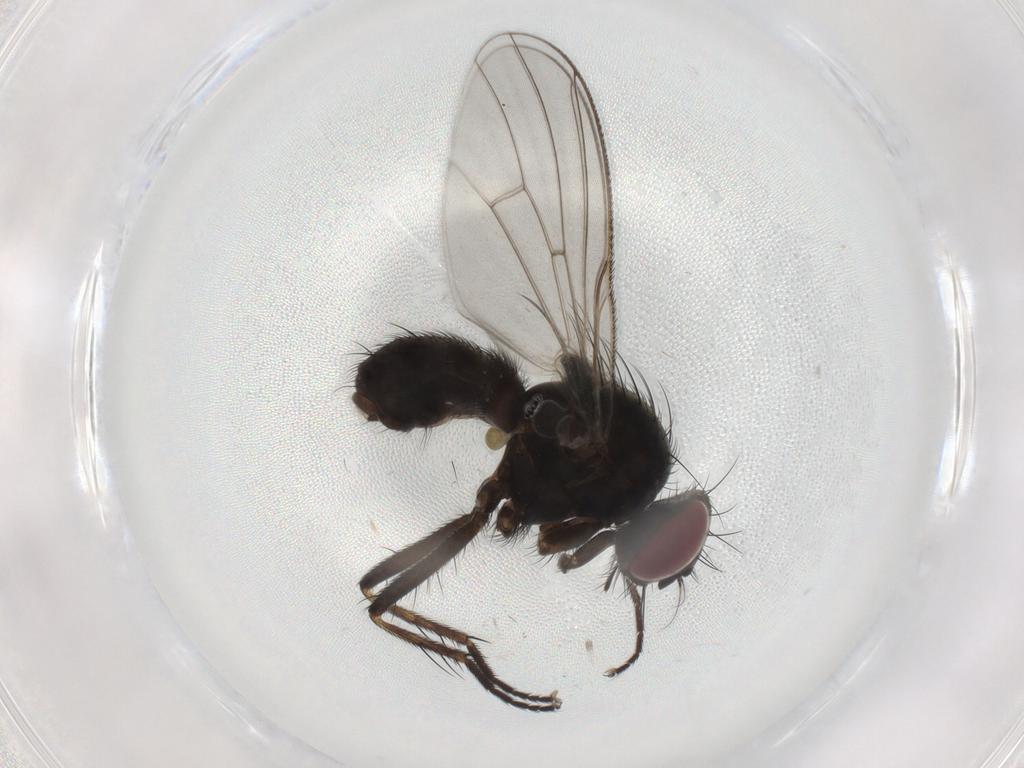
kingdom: Animalia
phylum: Arthropoda
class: Insecta
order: Diptera
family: Muscidae
